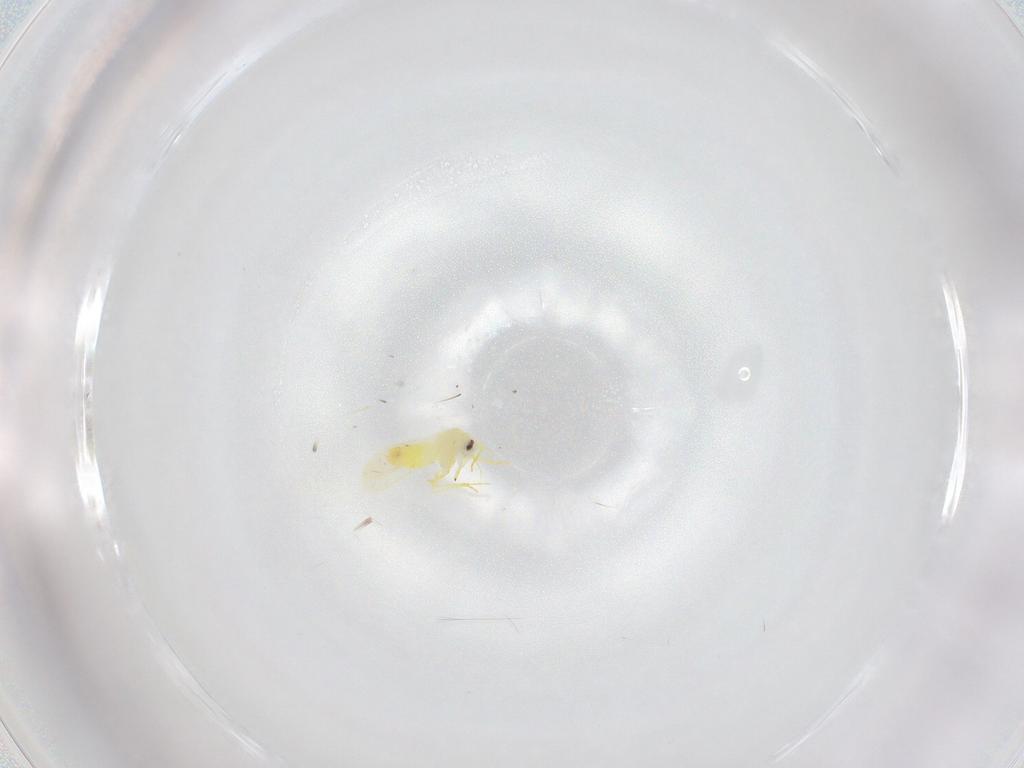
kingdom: Animalia
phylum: Arthropoda
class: Insecta
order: Hemiptera
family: Aleyrodidae
